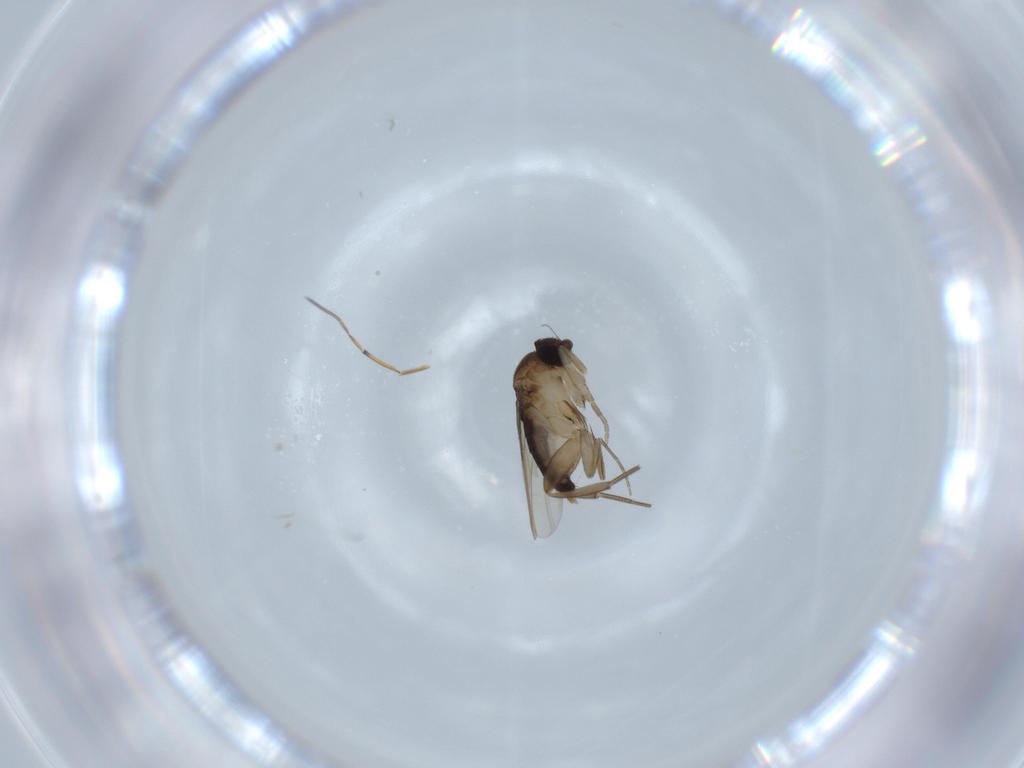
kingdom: Animalia
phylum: Arthropoda
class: Insecta
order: Diptera
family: Phoridae
